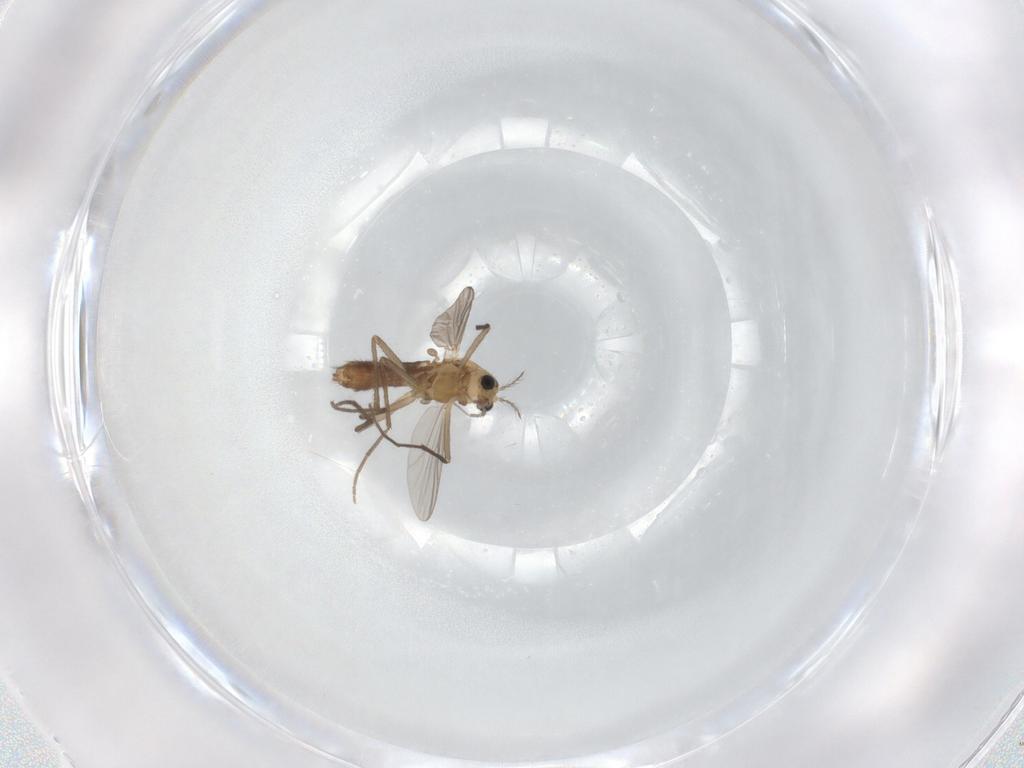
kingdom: Animalia
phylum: Arthropoda
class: Insecta
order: Diptera
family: Chironomidae
